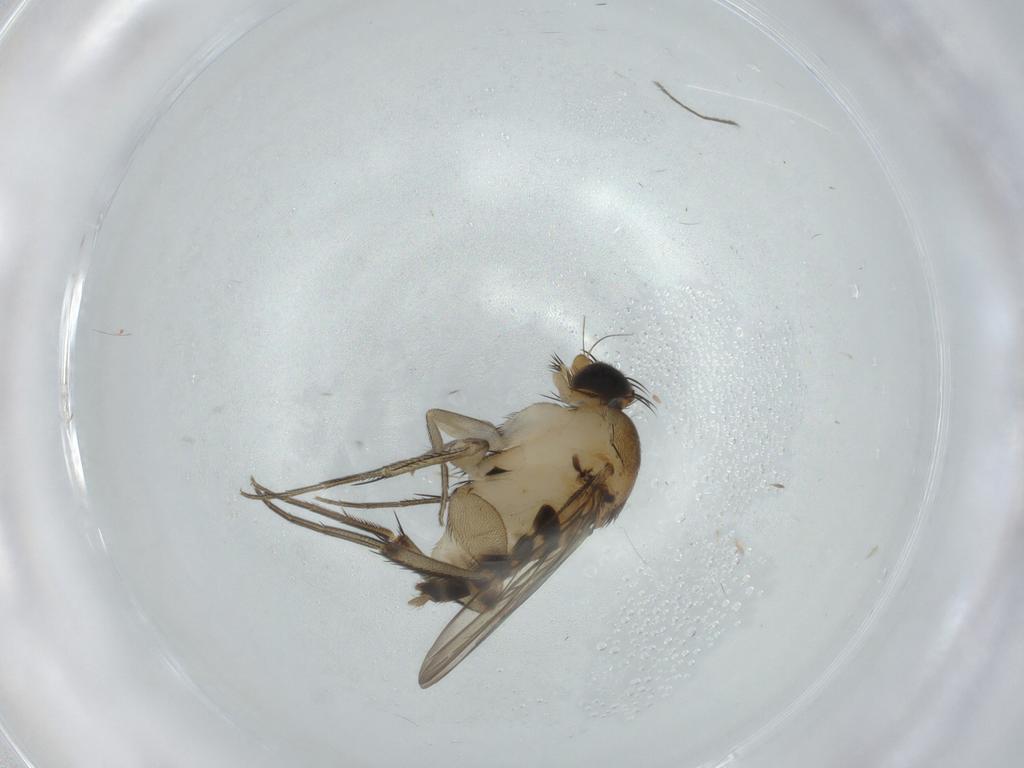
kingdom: Animalia
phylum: Arthropoda
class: Insecta
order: Diptera
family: Cecidomyiidae
